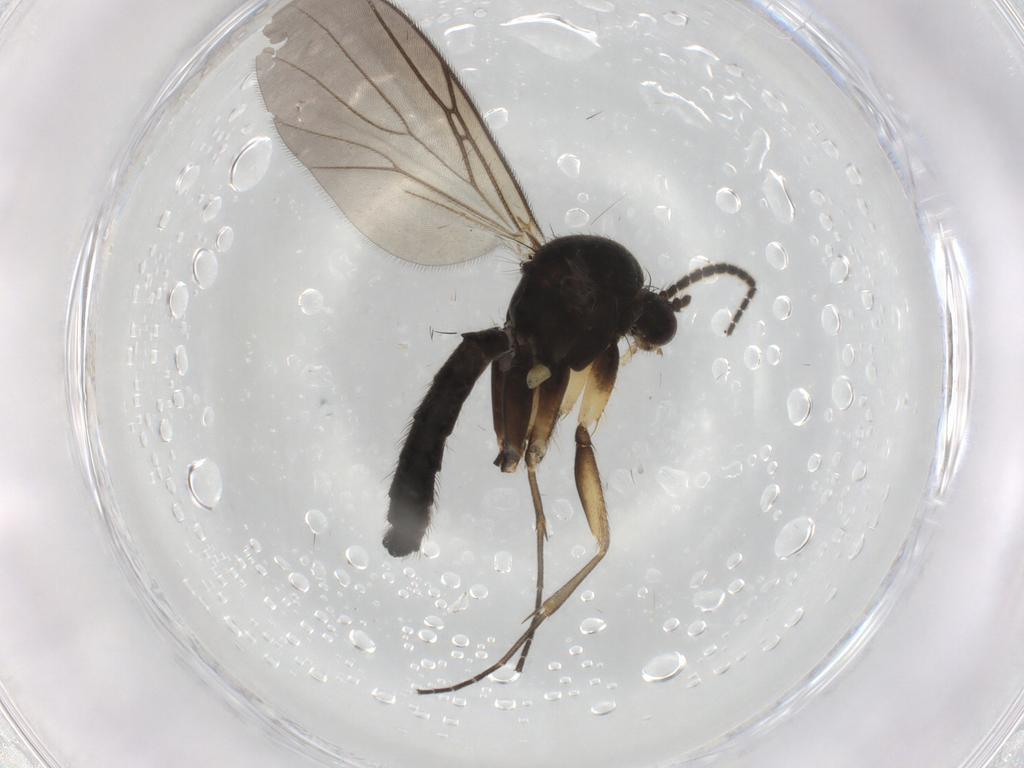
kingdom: Animalia
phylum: Arthropoda
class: Insecta
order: Diptera
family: Mycetophilidae
